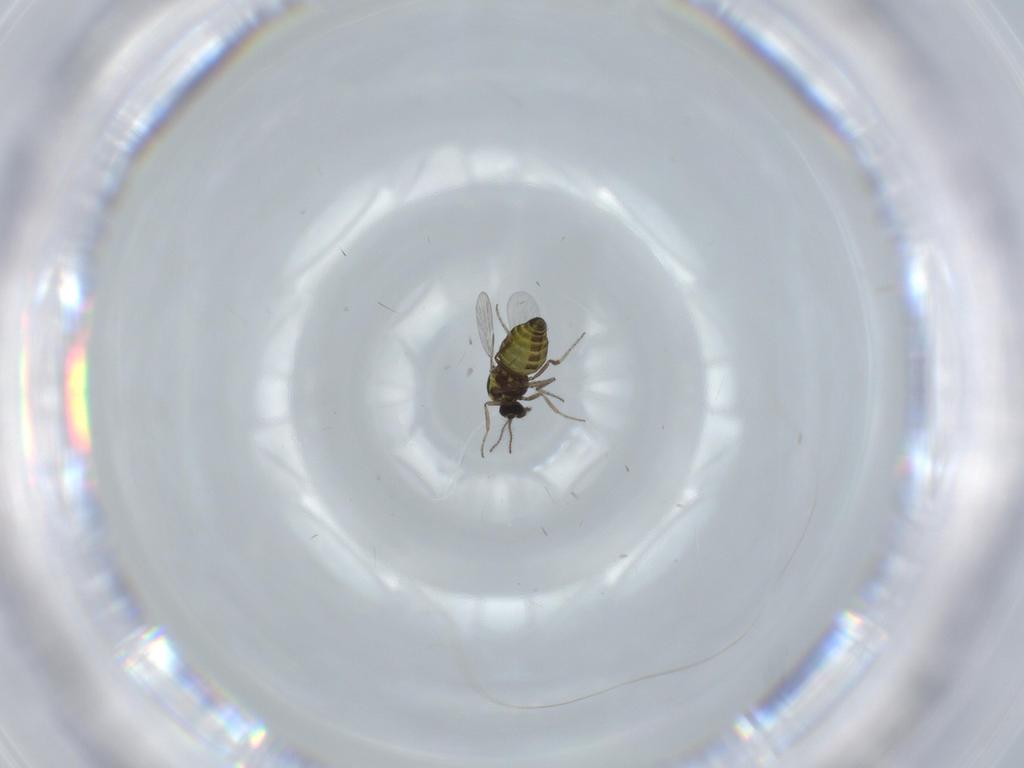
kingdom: Animalia
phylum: Arthropoda
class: Insecta
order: Diptera
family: Ceratopogonidae
